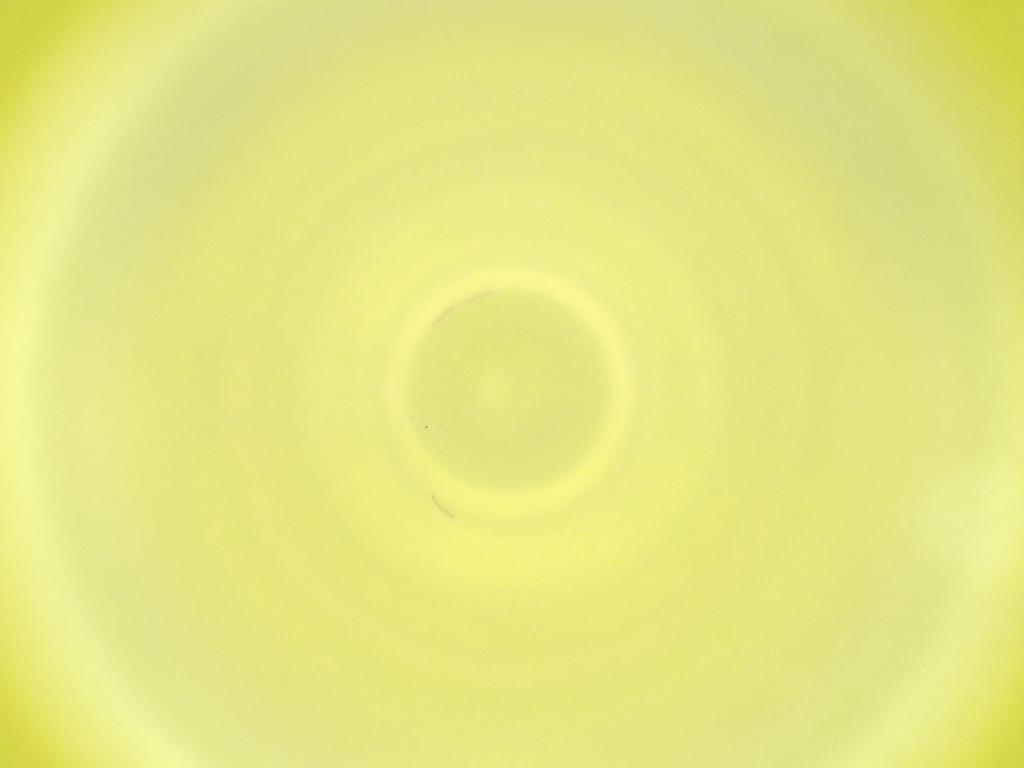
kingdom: Animalia
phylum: Arthropoda
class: Insecta
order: Diptera
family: Cecidomyiidae
